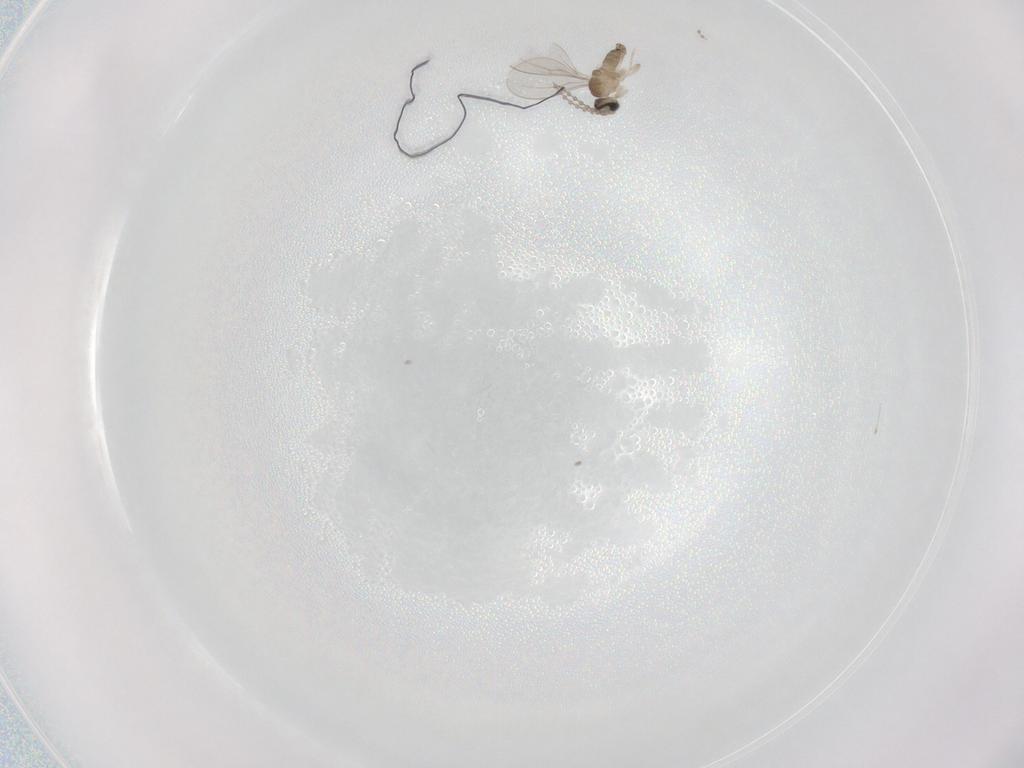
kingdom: Animalia
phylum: Arthropoda
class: Insecta
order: Diptera
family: Cecidomyiidae
